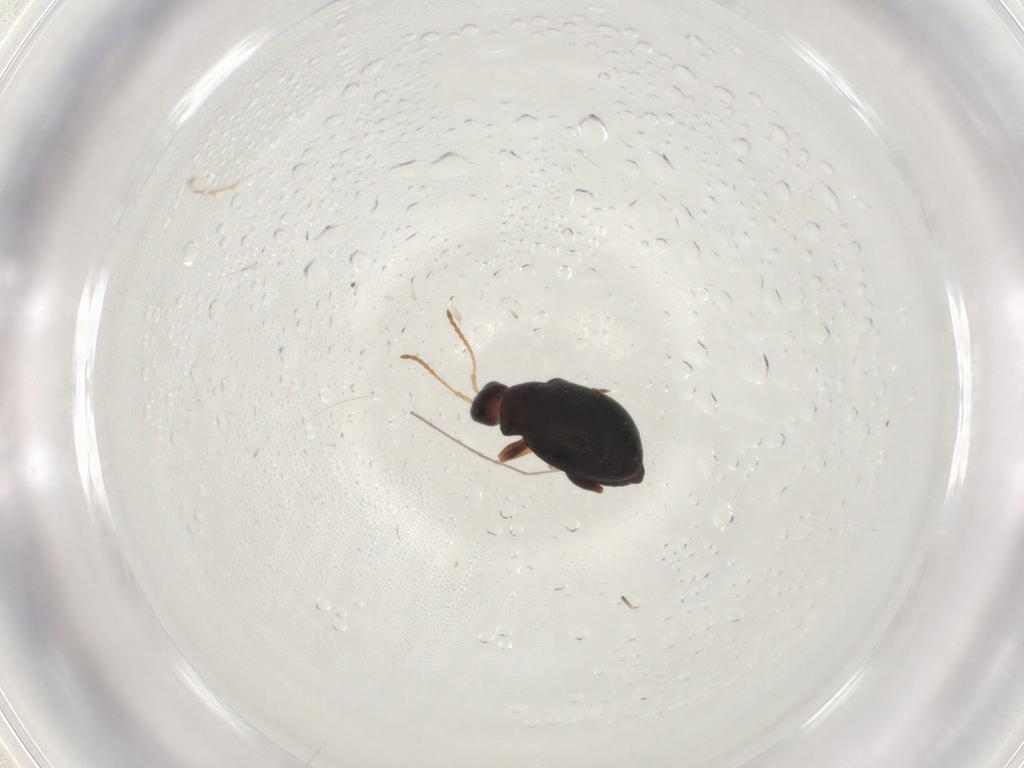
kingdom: Animalia
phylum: Arthropoda
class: Insecta
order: Coleoptera
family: Chrysomelidae
